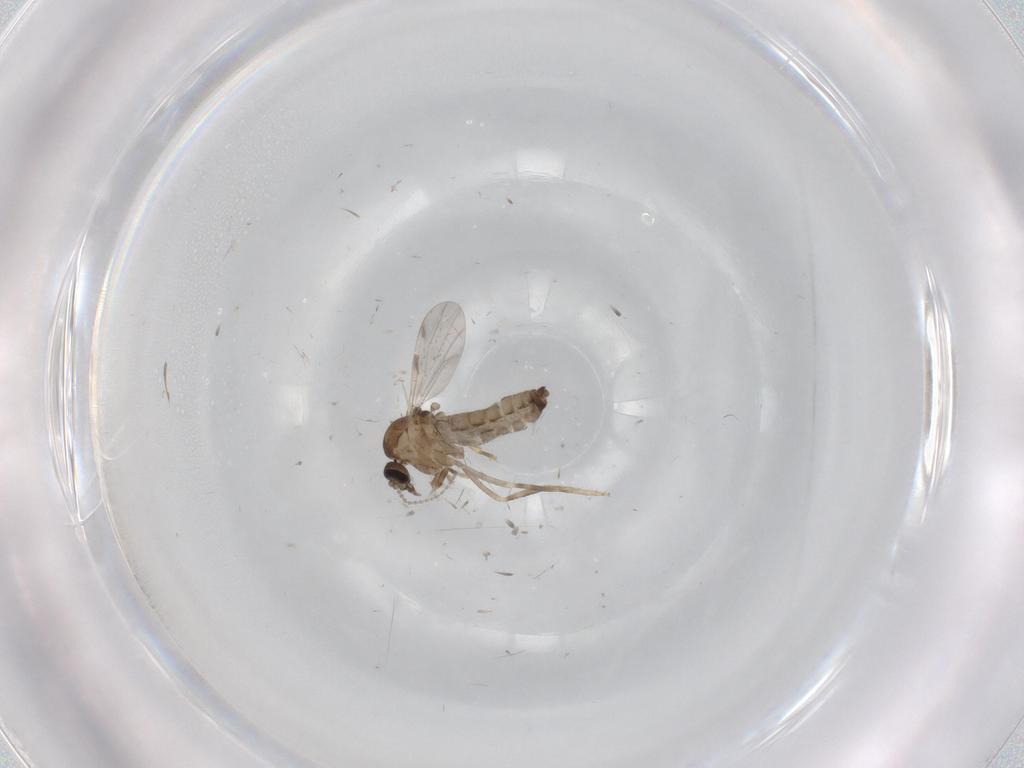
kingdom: Animalia
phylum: Arthropoda
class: Insecta
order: Diptera
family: Ceratopogonidae
